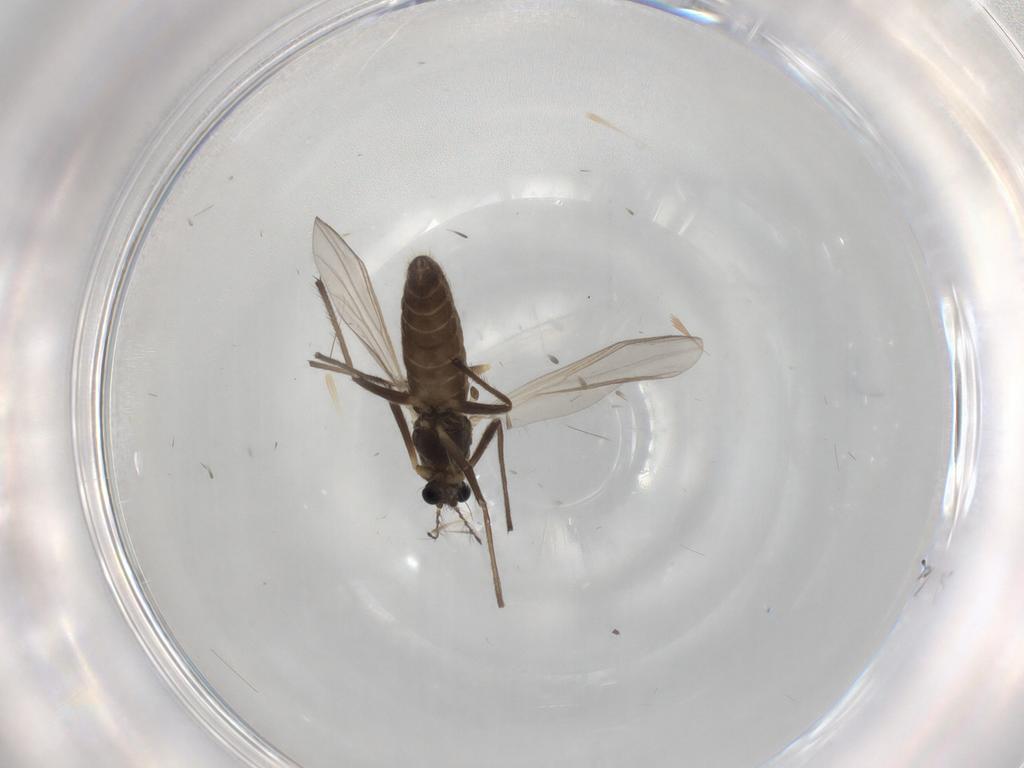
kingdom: Animalia
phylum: Arthropoda
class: Insecta
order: Diptera
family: Chironomidae
